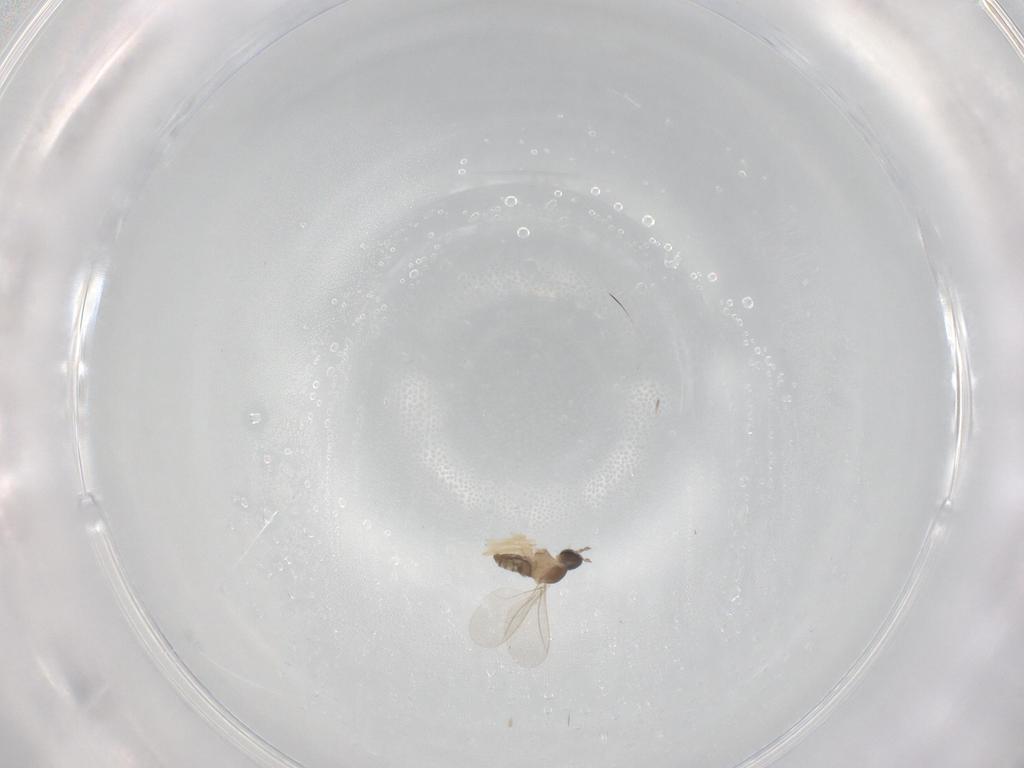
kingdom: Animalia
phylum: Arthropoda
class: Insecta
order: Diptera
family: Cecidomyiidae
